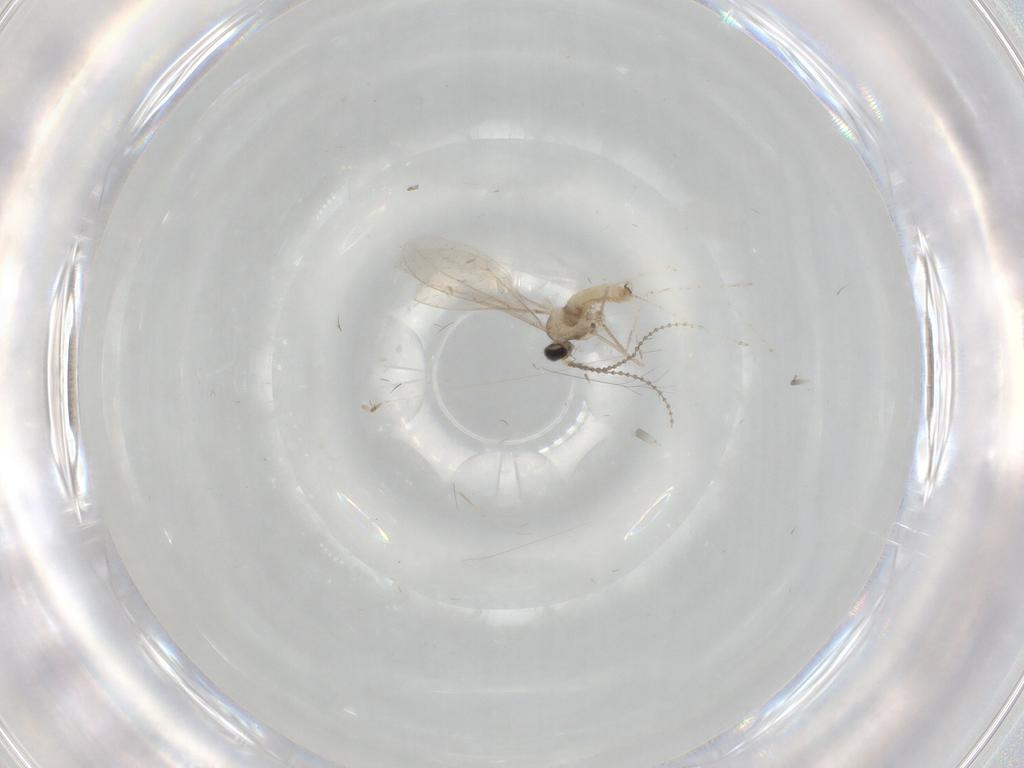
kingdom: Animalia
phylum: Arthropoda
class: Insecta
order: Diptera
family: Cecidomyiidae
